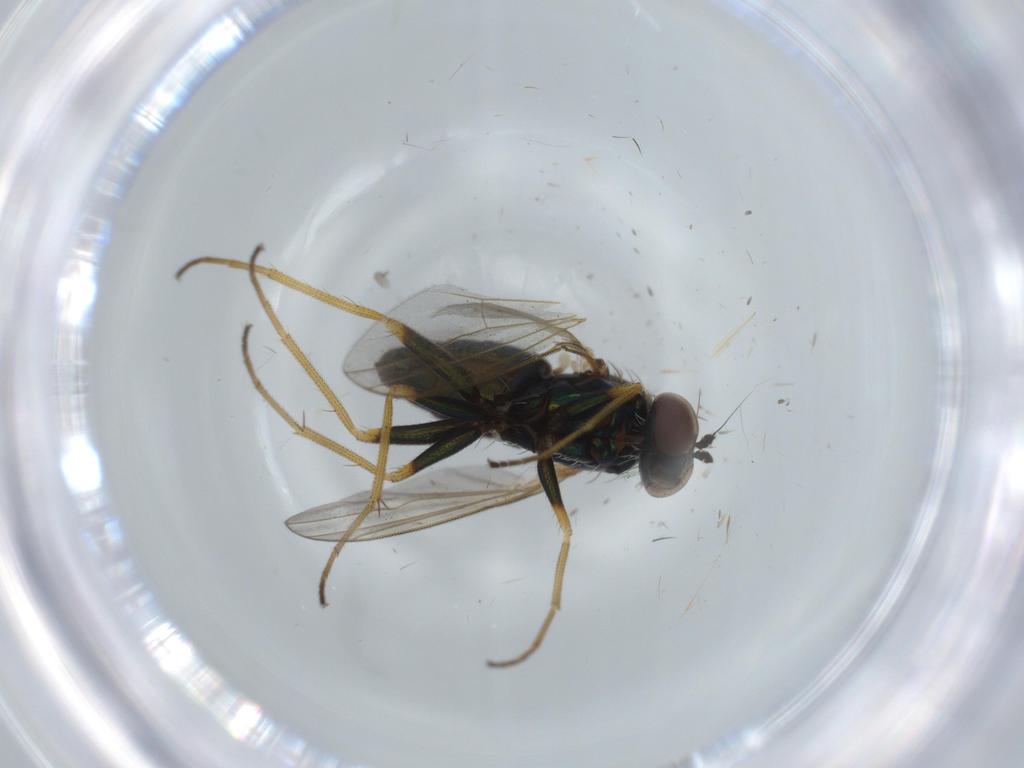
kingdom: Animalia
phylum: Arthropoda
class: Insecta
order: Diptera
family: Dolichopodidae
